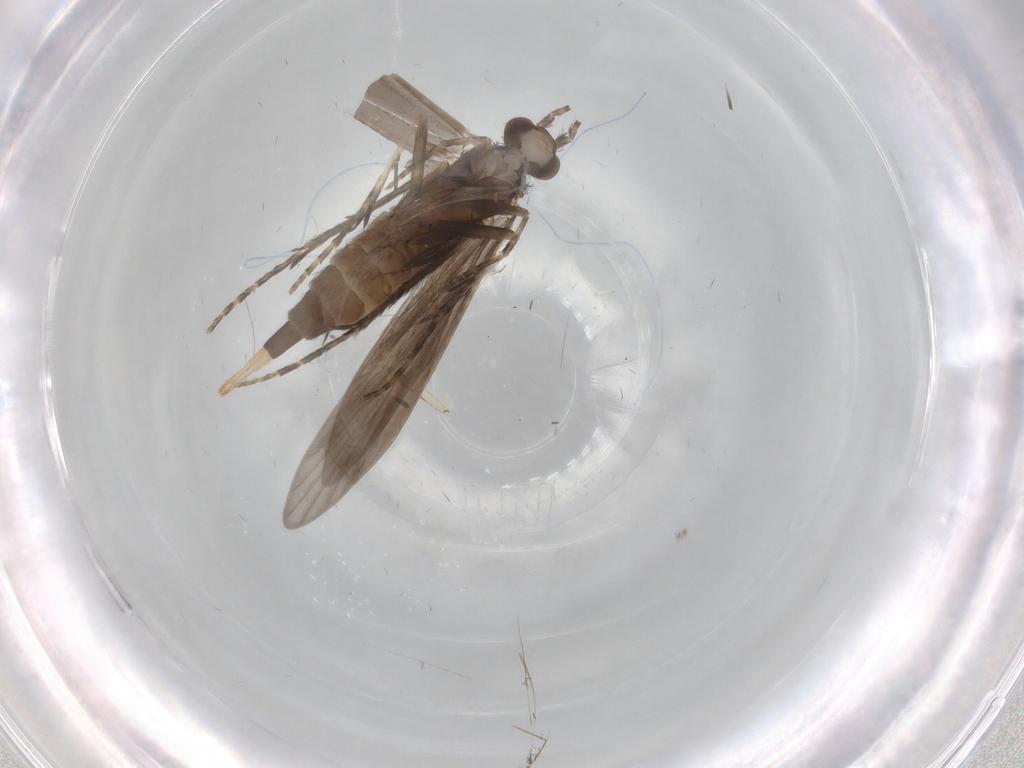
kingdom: Animalia
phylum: Arthropoda
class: Insecta
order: Trichoptera
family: Xiphocentronidae
